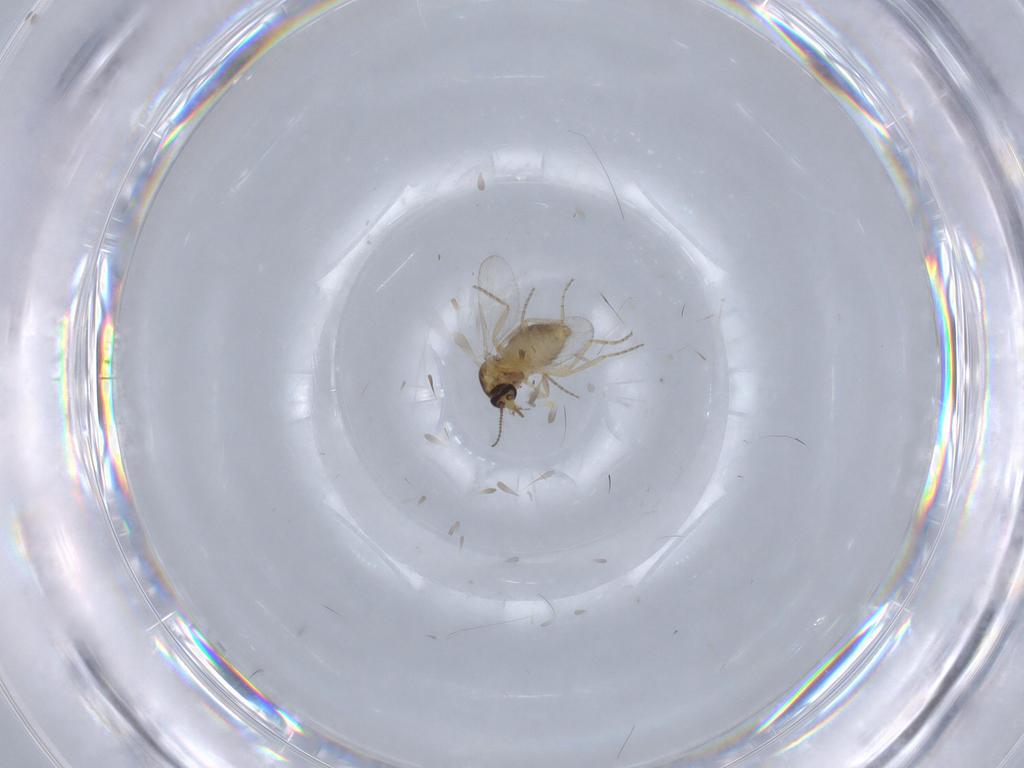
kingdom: Animalia
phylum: Arthropoda
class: Insecta
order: Diptera
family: Ceratopogonidae
